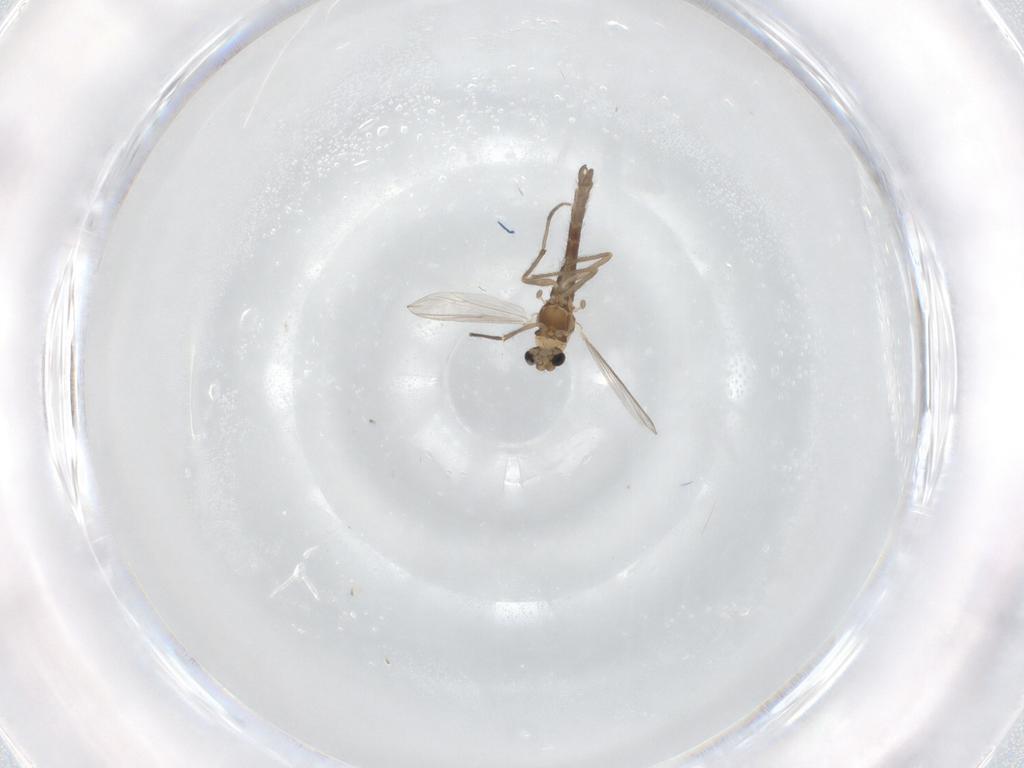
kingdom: Animalia
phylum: Arthropoda
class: Insecta
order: Diptera
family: Chironomidae
